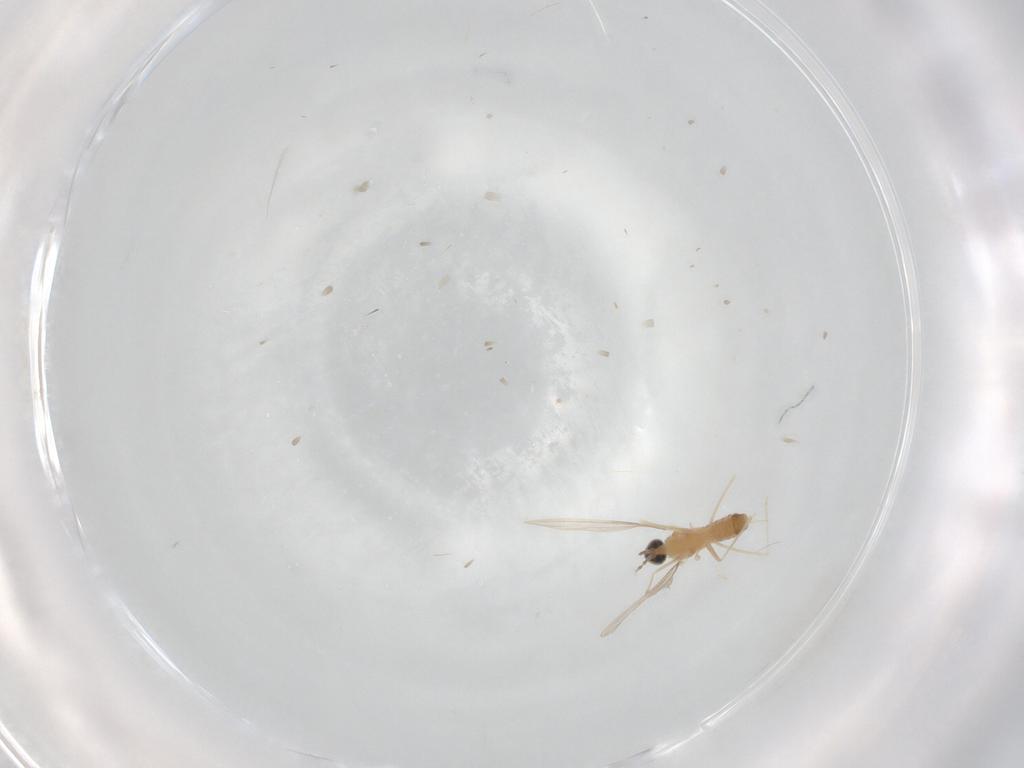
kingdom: Animalia
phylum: Arthropoda
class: Insecta
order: Diptera
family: Cecidomyiidae
